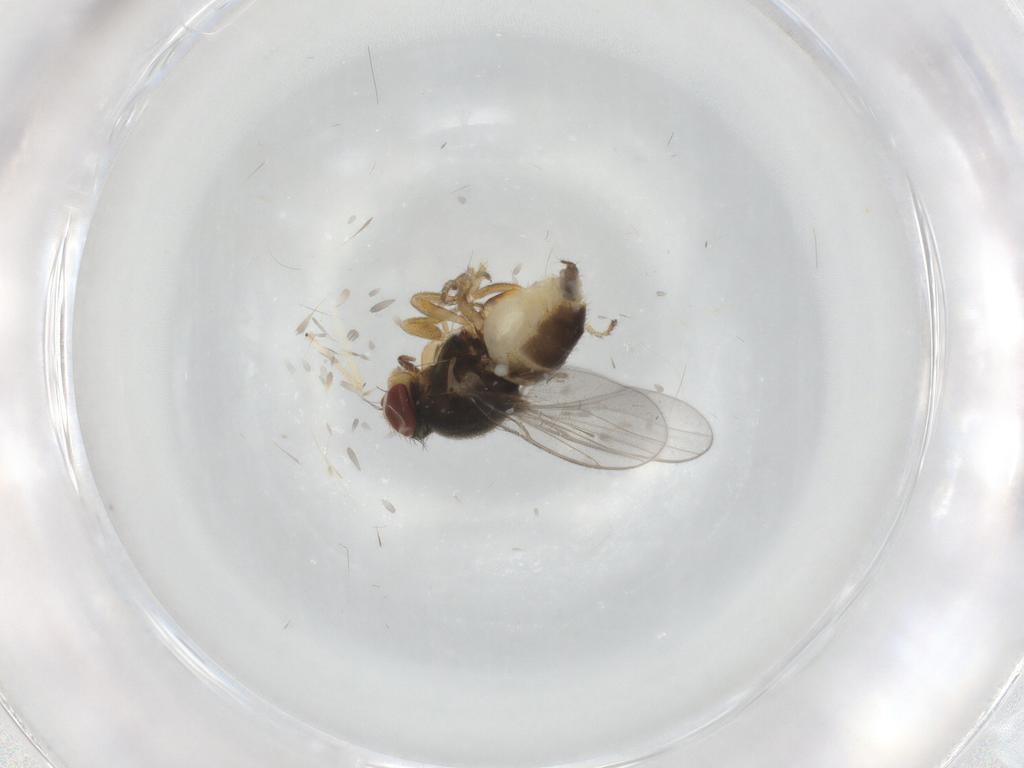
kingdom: Animalia
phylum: Arthropoda
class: Insecta
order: Diptera
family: Chloropidae
